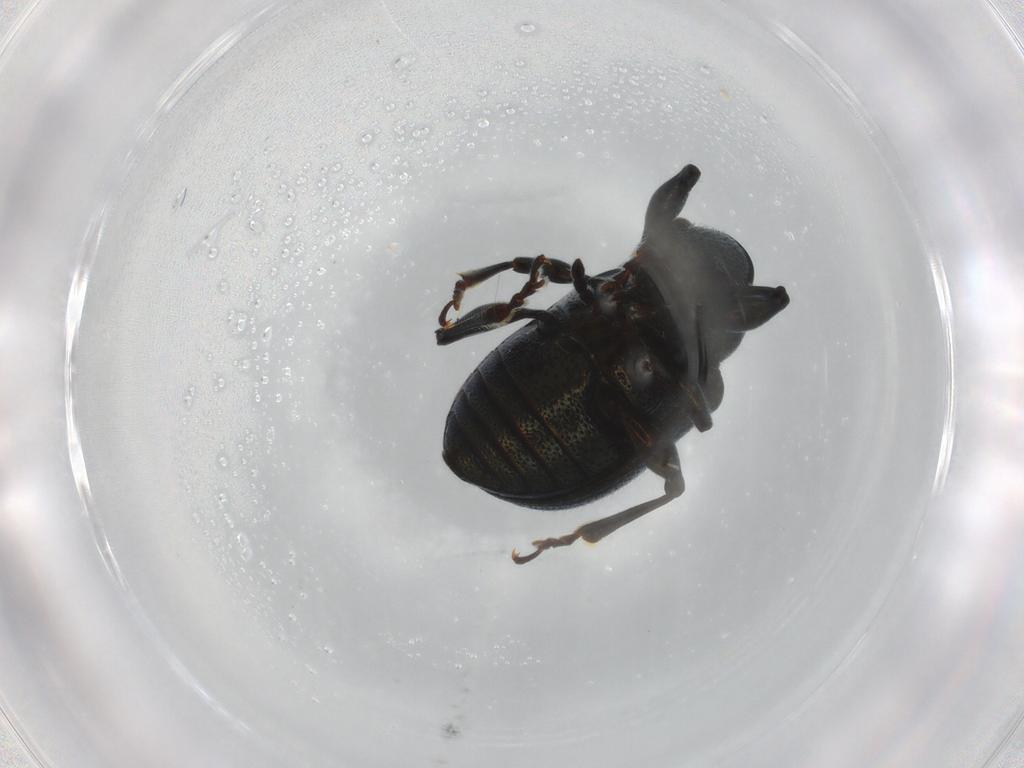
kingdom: Animalia
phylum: Arthropoda
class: Insecta
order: Coleoptera
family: Chrysomelidae
